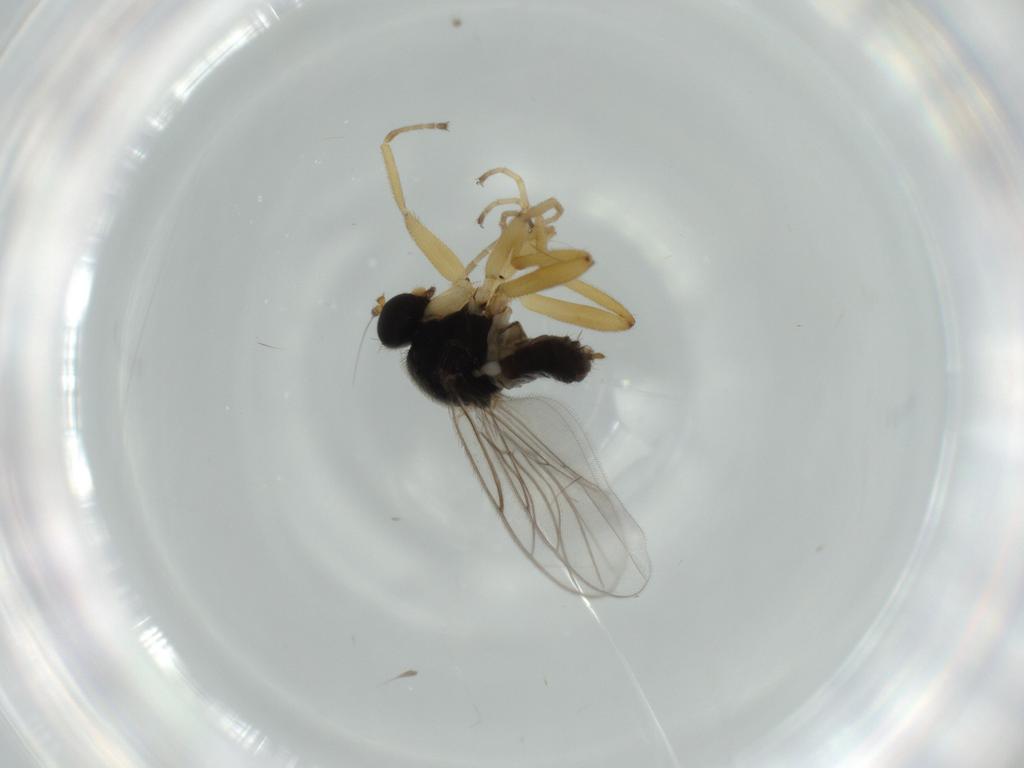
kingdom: Animalia
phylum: Arthropoda
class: Insecta
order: Diptera
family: Hybotidae
